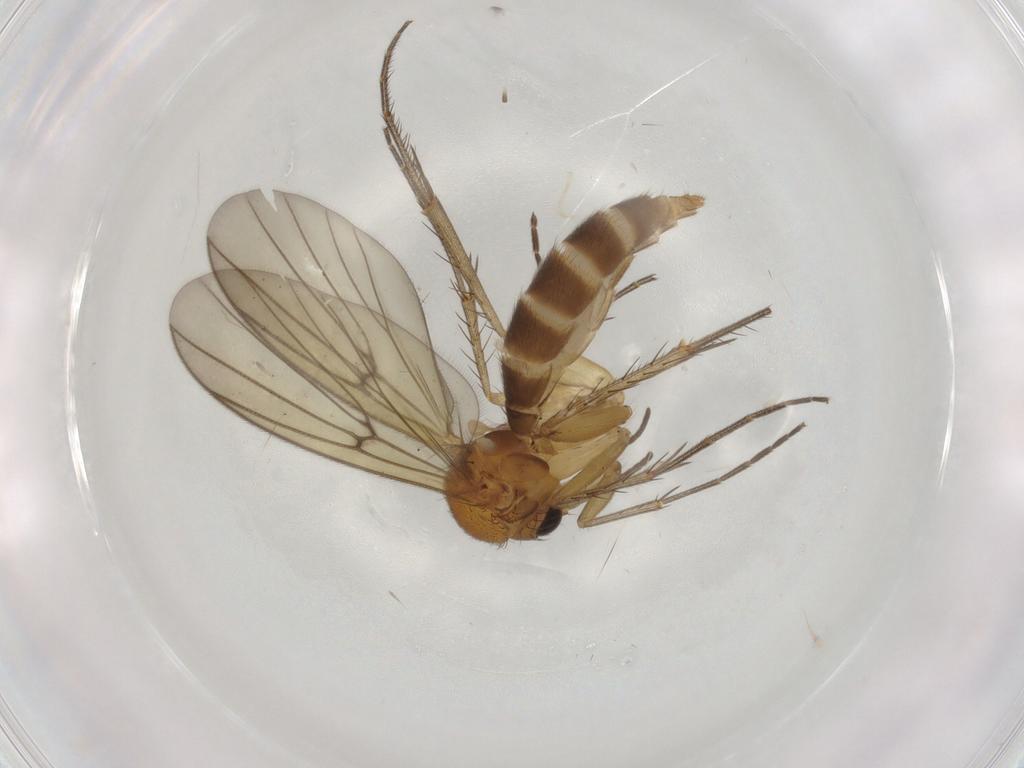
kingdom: Animalia
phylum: Arthropoda
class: Insecta
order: Diptera
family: Mycetophilidae
